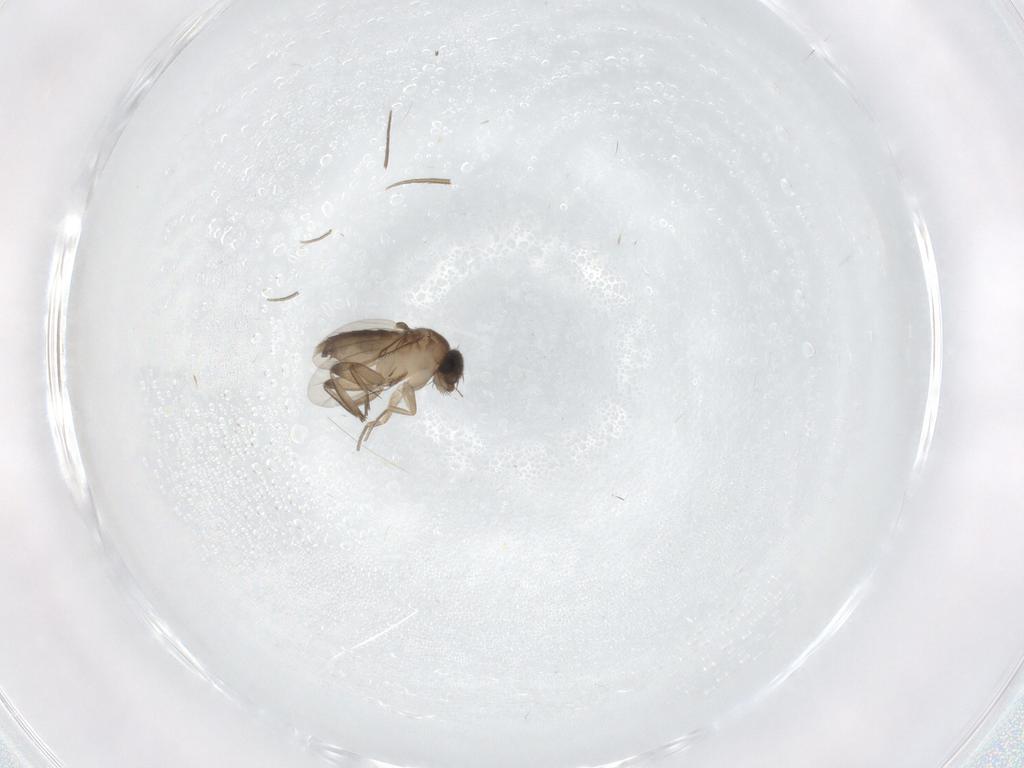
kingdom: Animalia
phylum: Arthropoda
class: Insecta
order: Diptera
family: Phoridae
